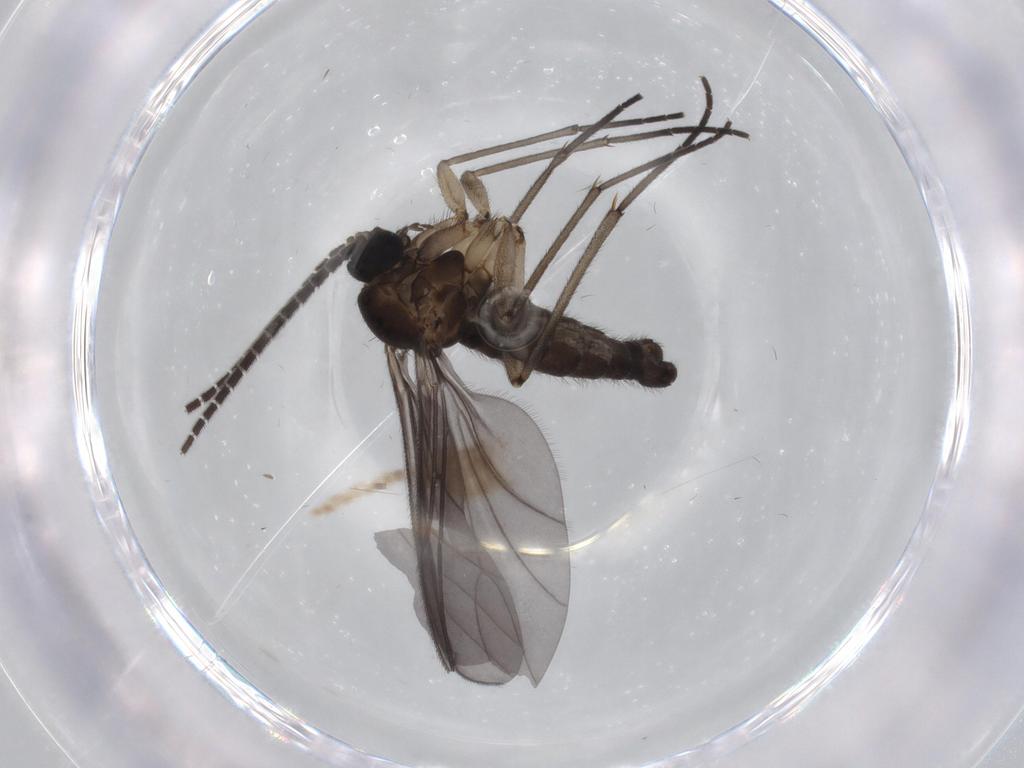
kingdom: Animalia
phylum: Arthropoda
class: Insecta
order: Diptera
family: Sciaridae
